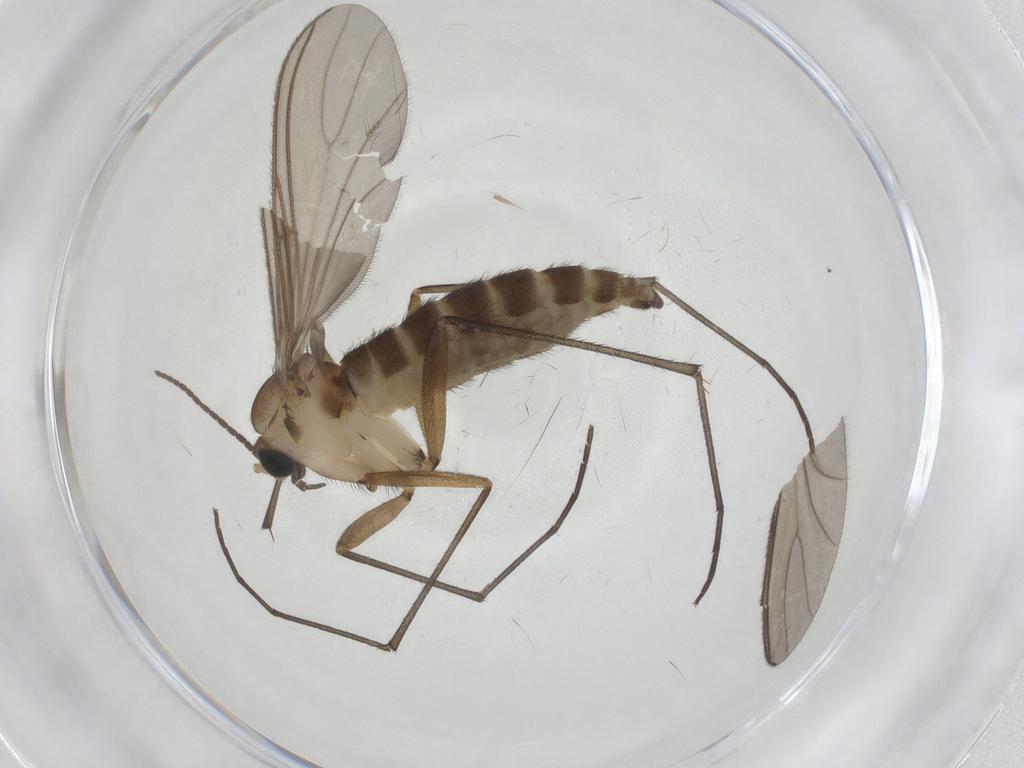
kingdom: Animalia
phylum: Arthropoda
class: Insecta
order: Diptera
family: Sciaridae
